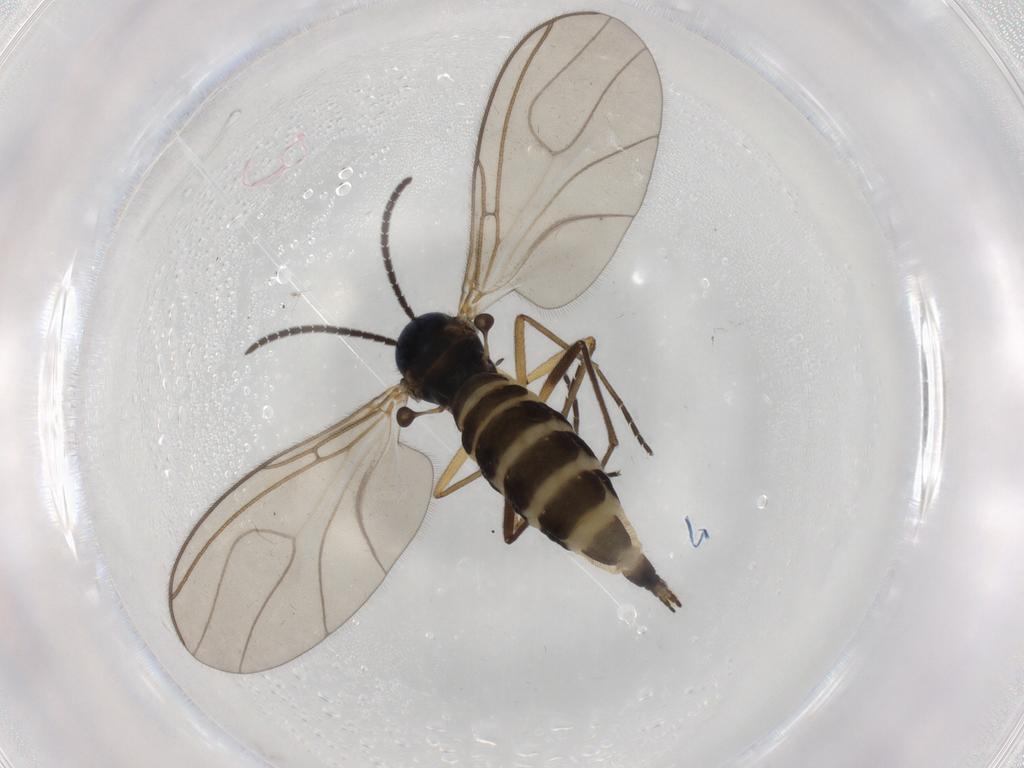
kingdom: Animalia
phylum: Arthropoda
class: Insecta
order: Diptera
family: Sciaridae
